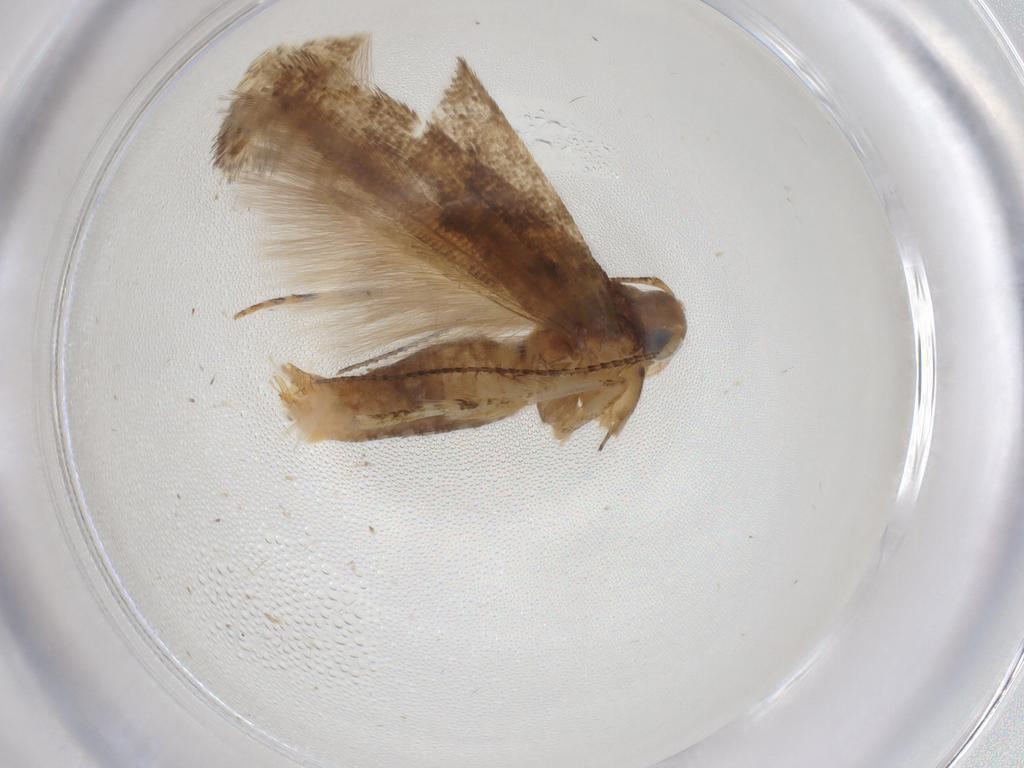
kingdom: Animalia
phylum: Arthropoda
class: Insecta
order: Lepidoptera
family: Gelechiidae
